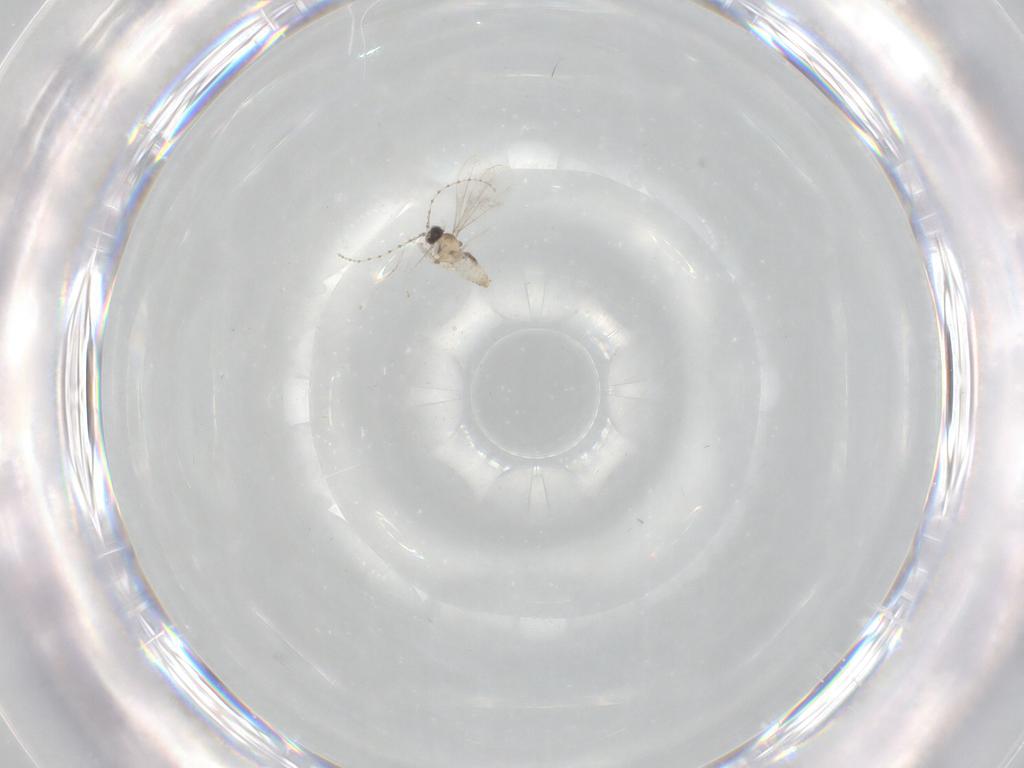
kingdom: Animalia
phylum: Arthropoda
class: Insecta
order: Diptera
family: Cecidomyiidae
